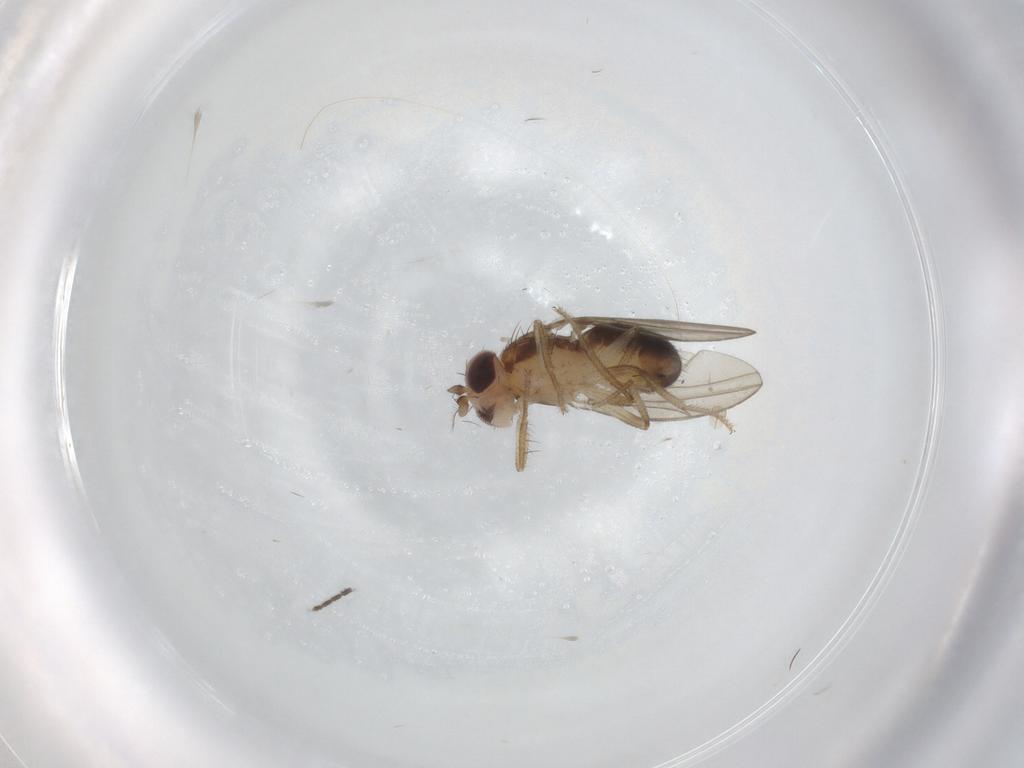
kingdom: Animalia
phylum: Arthropoda
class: Insecta
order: Diptera
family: Drosophilidae
